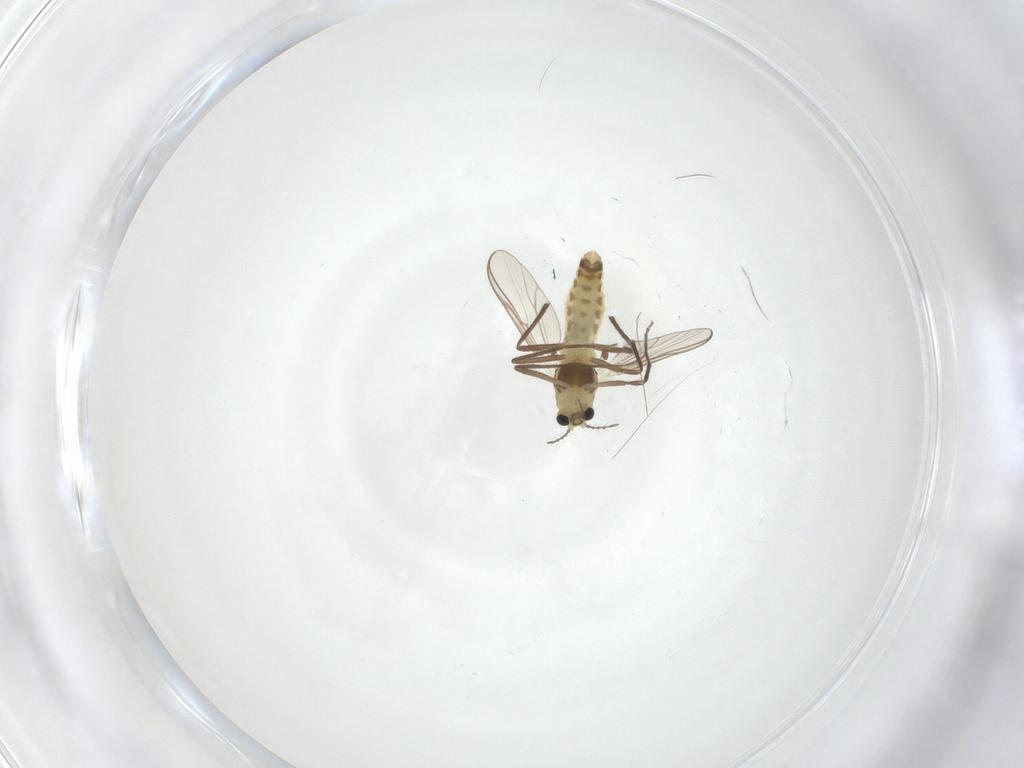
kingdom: Animalia
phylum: Arthropoda
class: Insecta
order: Diptera
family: Chironomidae
